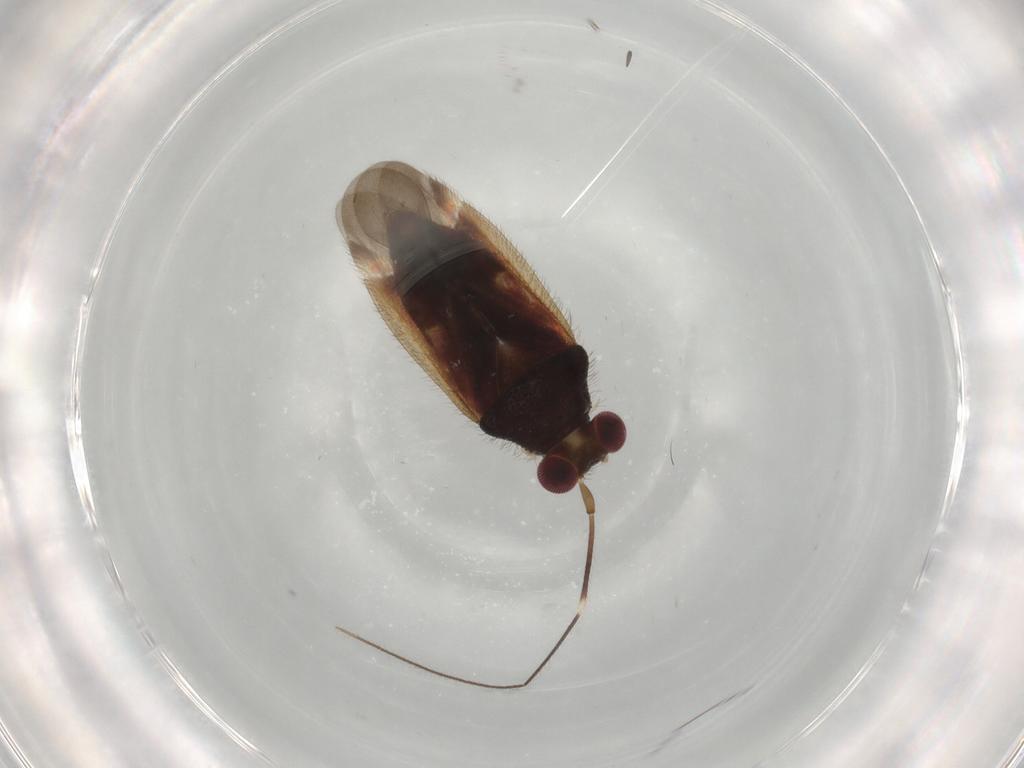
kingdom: Animalia
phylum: Arthropoda
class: Insecta
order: Hemiptera
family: Miridae
